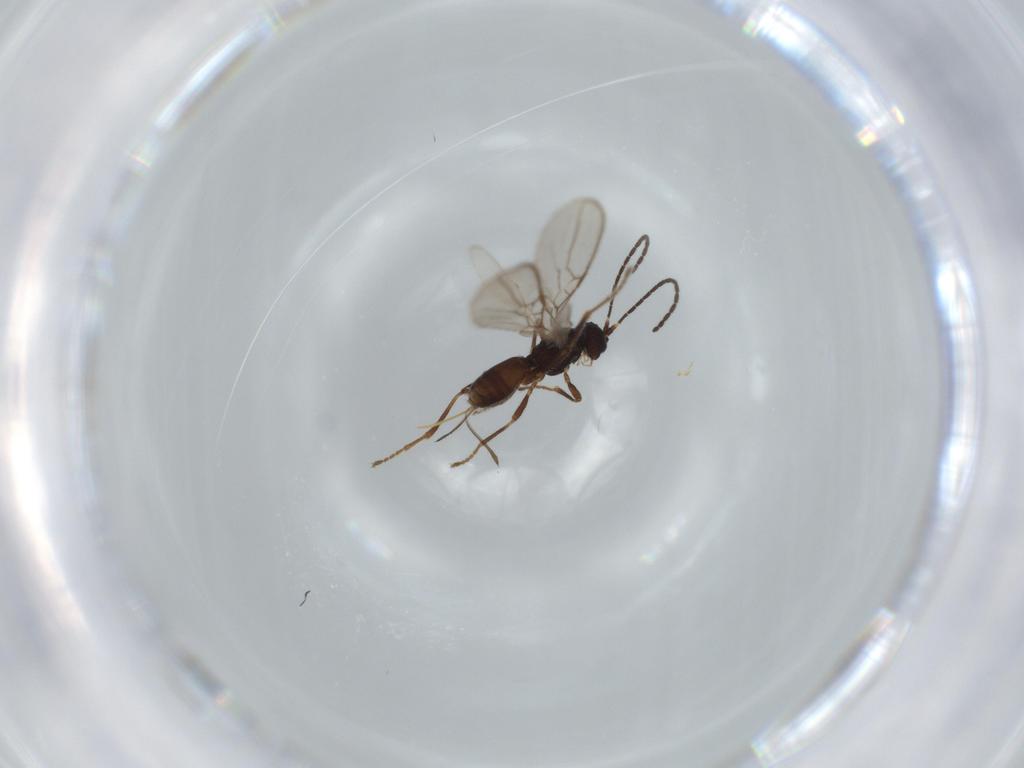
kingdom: Animalia
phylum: Arthropoda
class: Insecta
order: Hymenoptera
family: Braconidae
